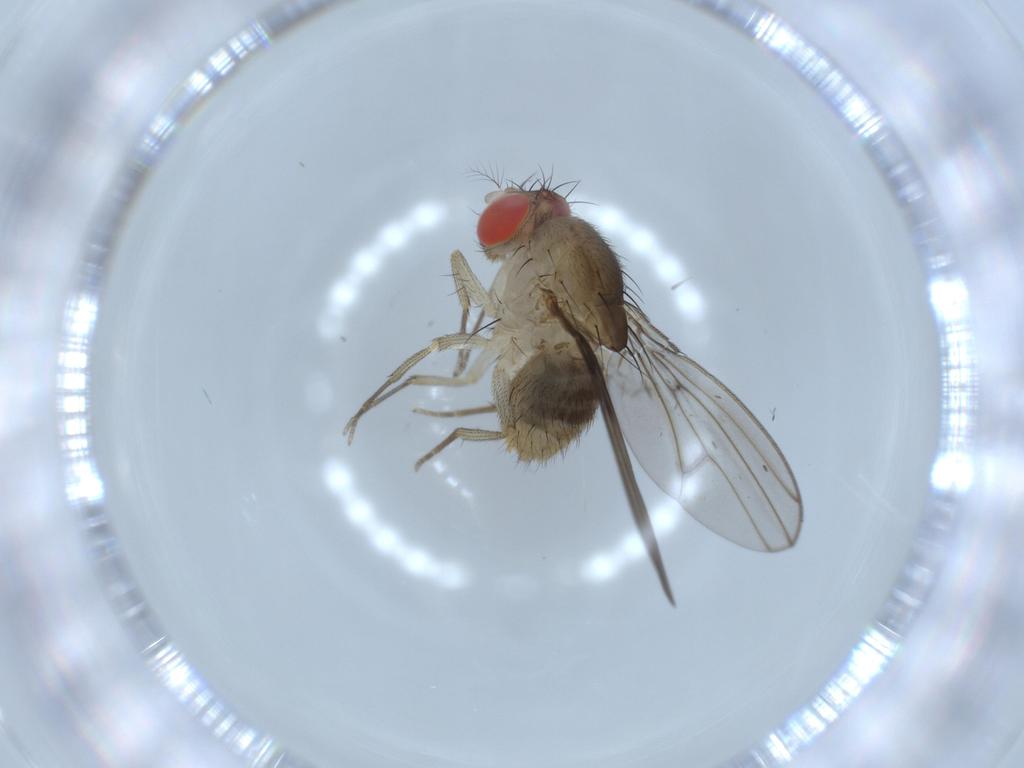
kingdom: Animalia
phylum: Arthropoda
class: Insecta
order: Diptera
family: Drosophilidae
